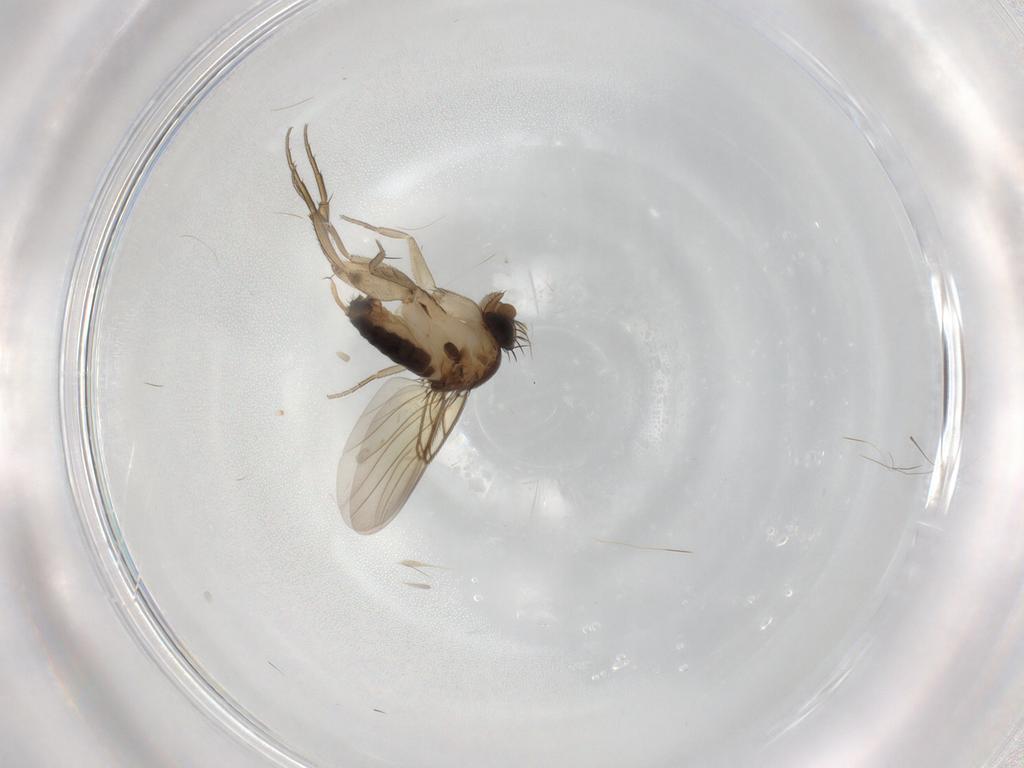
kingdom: Animalia
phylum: Arthropoda
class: Insecta
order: Diptera
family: Phoridae
